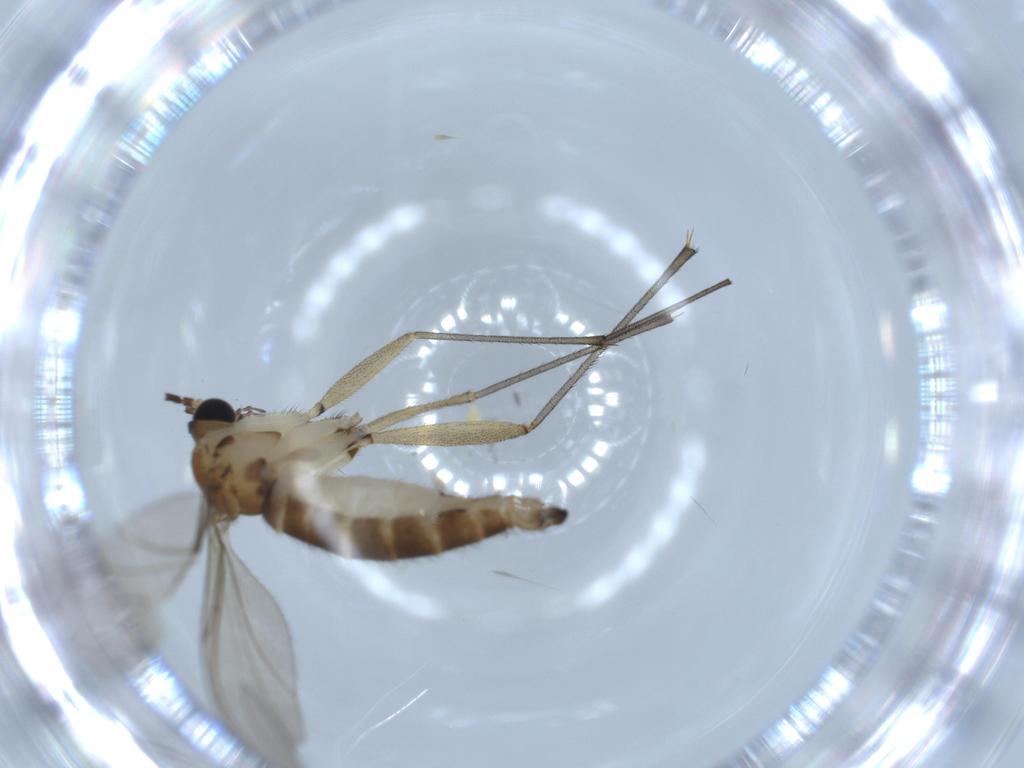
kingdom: Animalia
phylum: Arthropoda
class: Insecta
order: Diptera
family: Sciaridae
